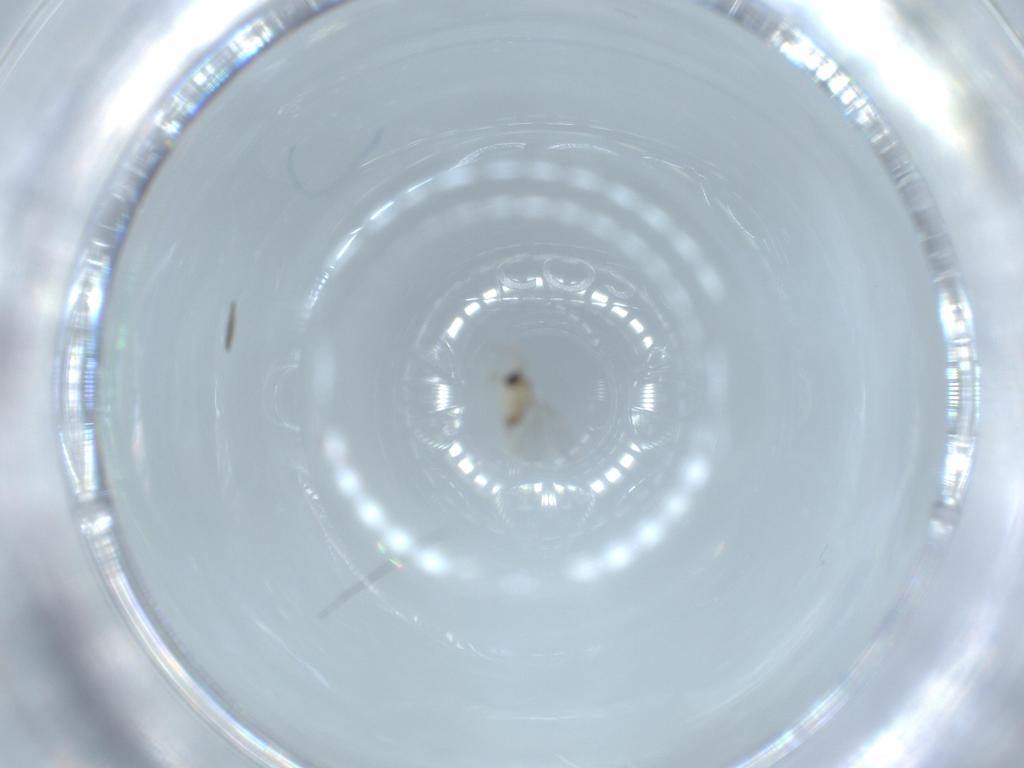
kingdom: Animalia
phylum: Arthropoda
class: Insecta
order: Diptera
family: Cecidomyiidae
